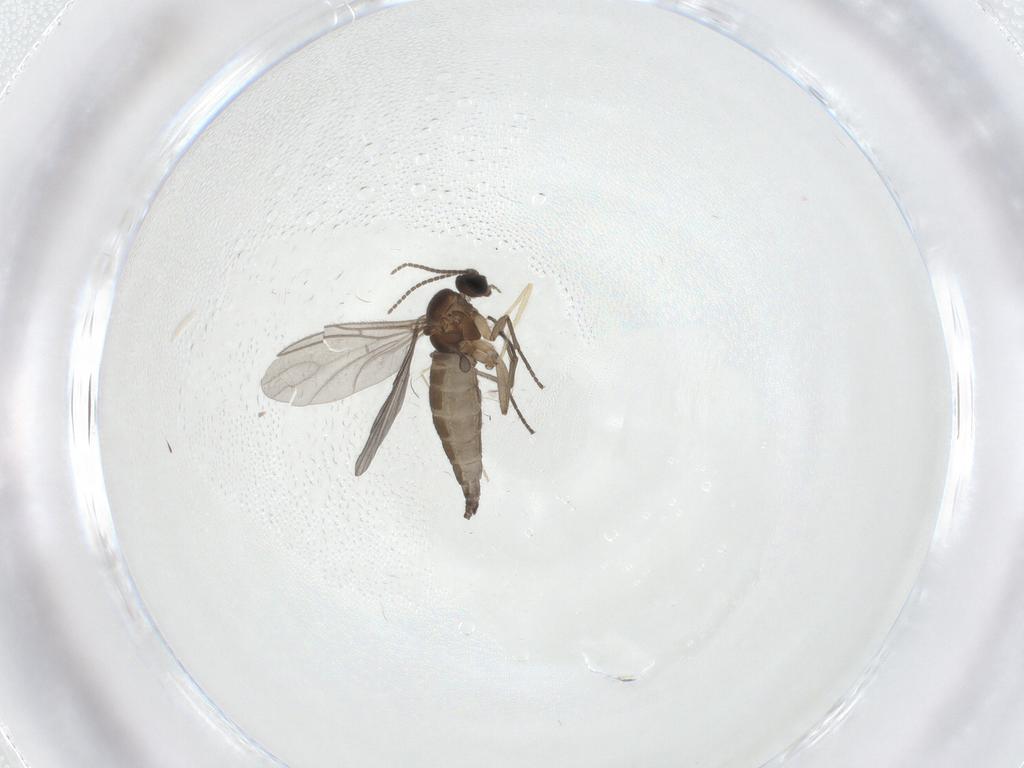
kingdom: Animalia
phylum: Arthropoda
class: Insecta
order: Diptera
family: Sciaridae
